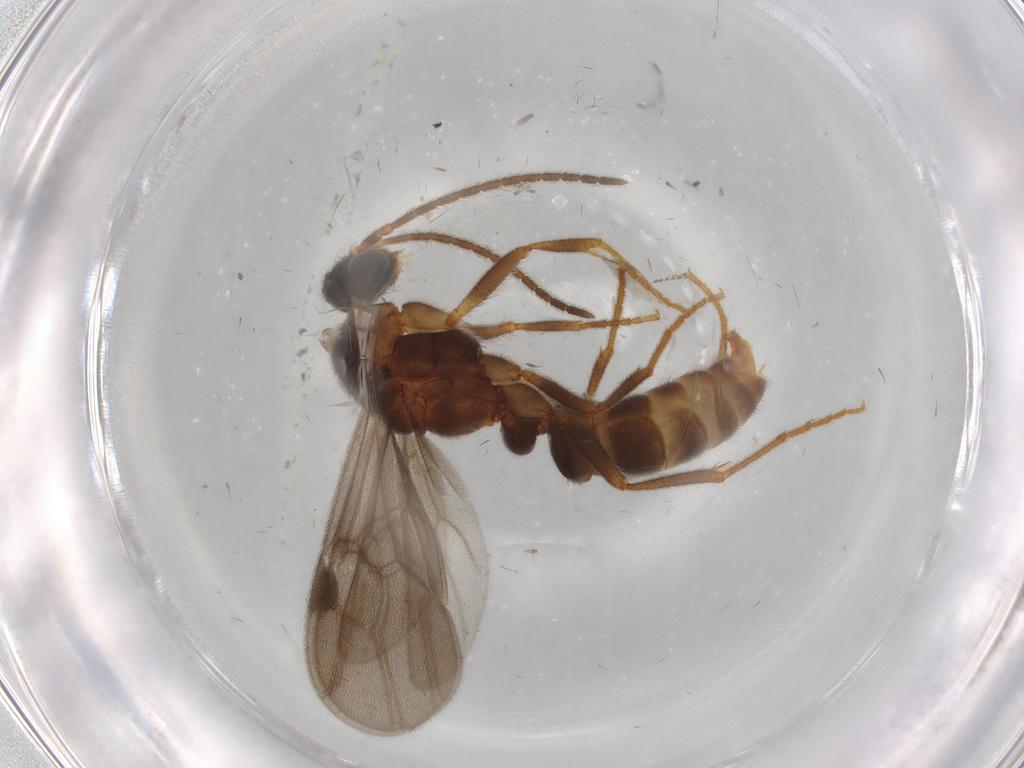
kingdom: Animalia
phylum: Arthropoda
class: Insecta
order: Hymenoptera
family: Formicidae
